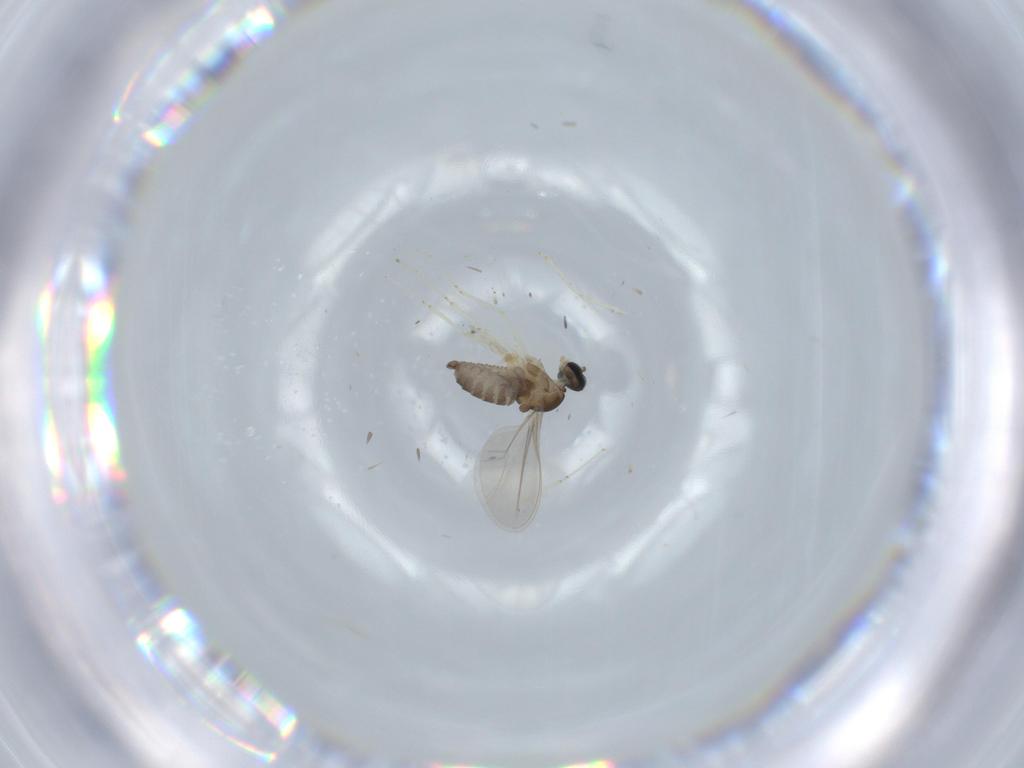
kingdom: Animalia
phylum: Arthropoda
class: Insecta
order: Diptera
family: Cecidomyiidae
